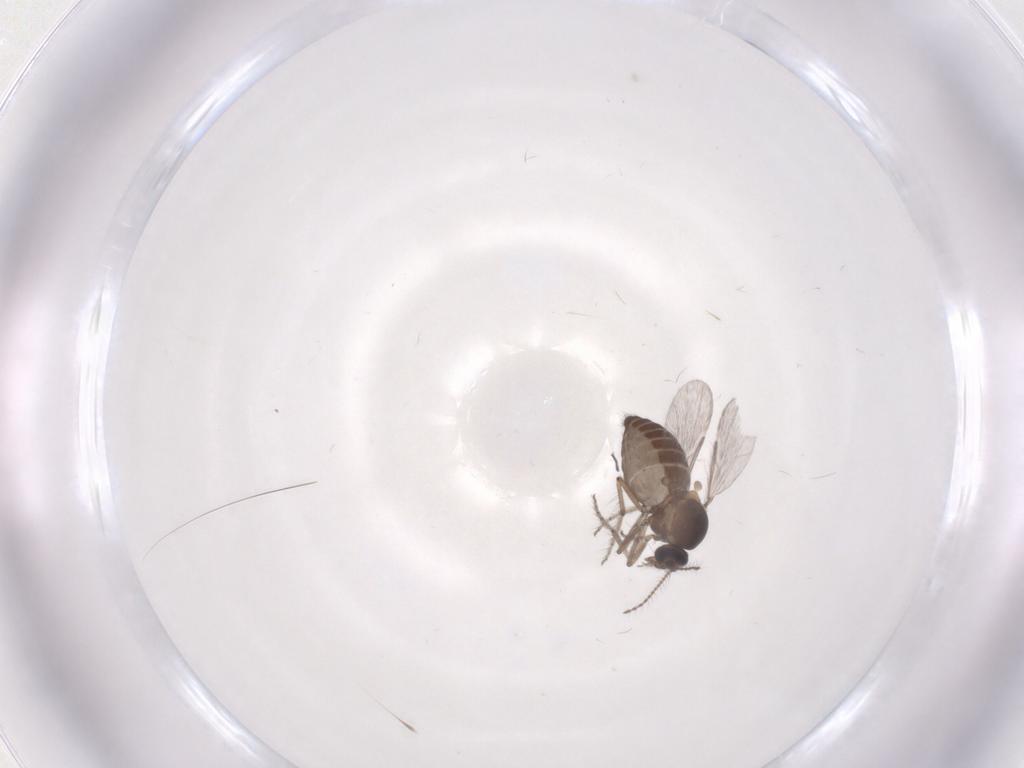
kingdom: Animalia
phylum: Arthropoda
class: Insecta
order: Diptera
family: Ceratopogonidae
